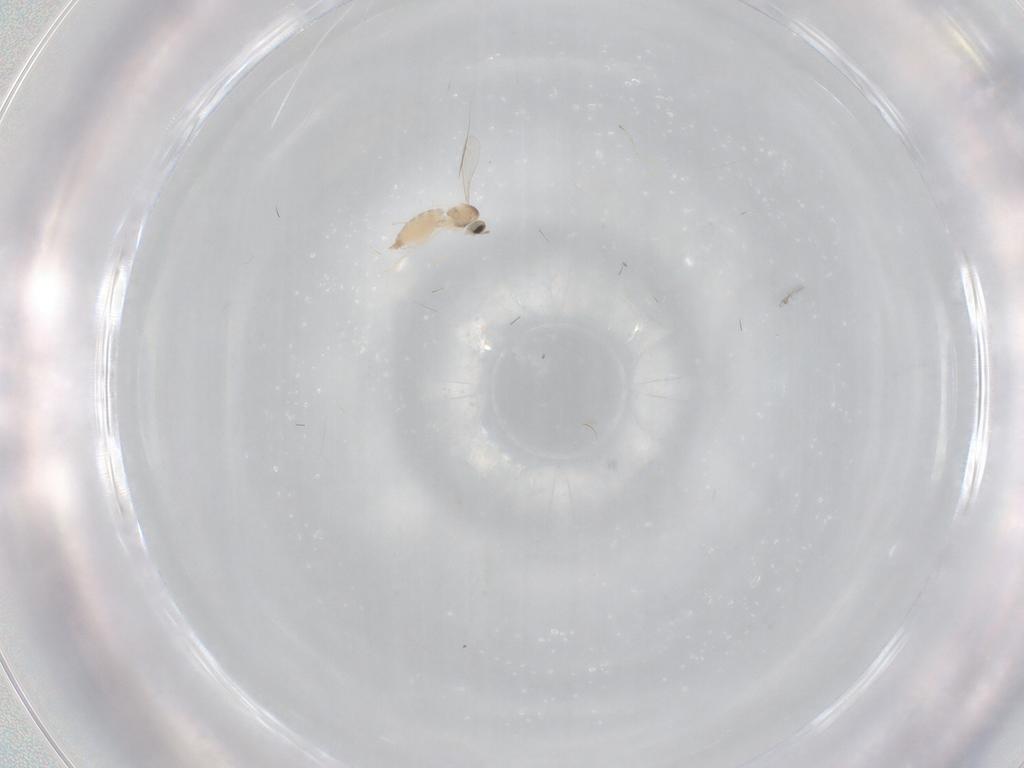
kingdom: Animalia
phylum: Arthropoda
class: Insecta
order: Diptera
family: Cecidomyiidae
